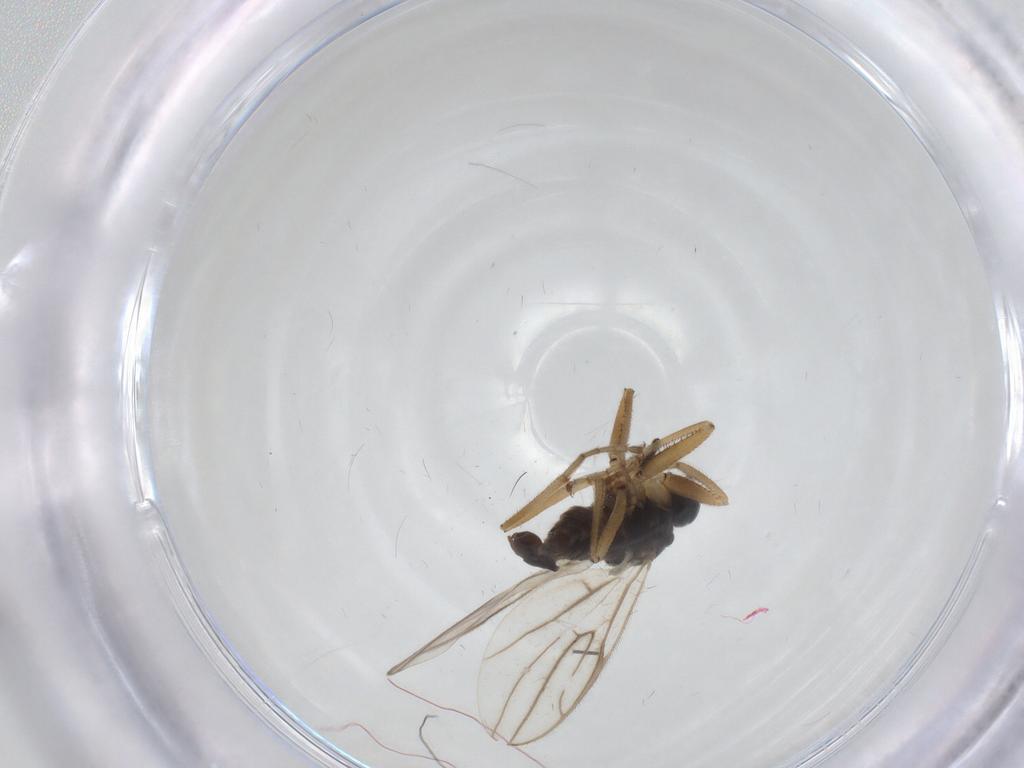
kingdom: Animalia
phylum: Arthropoda
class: Insecta
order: Diptera
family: Hybotidae
